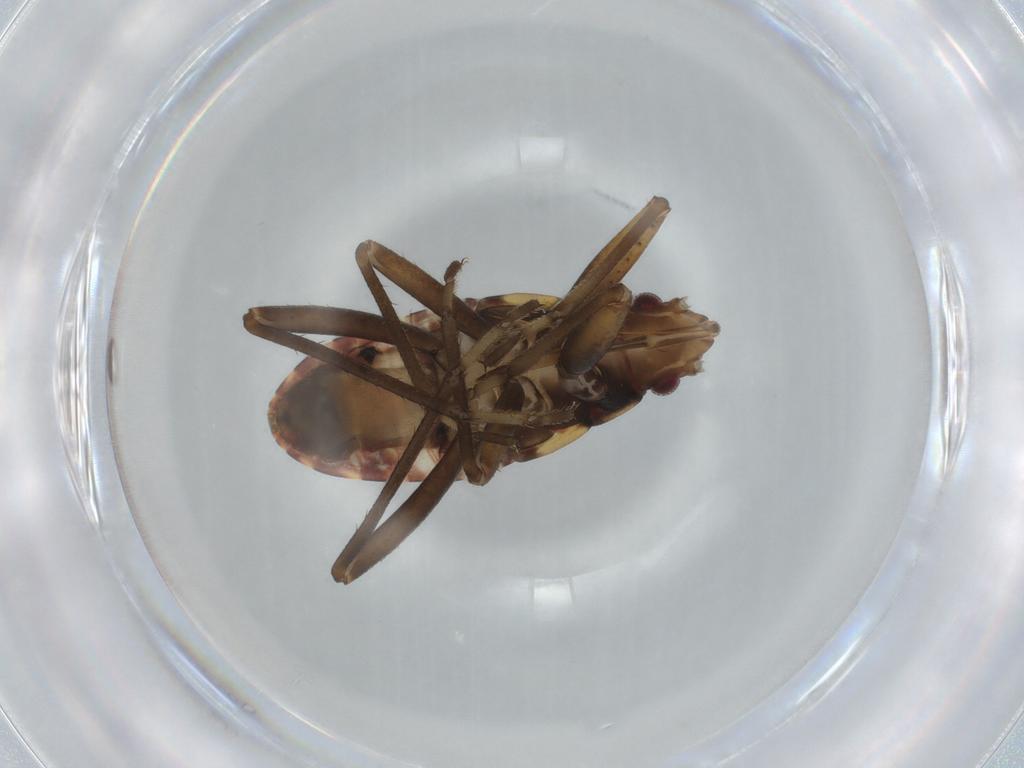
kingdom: Animalia
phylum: Arthropoda
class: Insecta
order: Hemiptera
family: Rhyparochromidae
